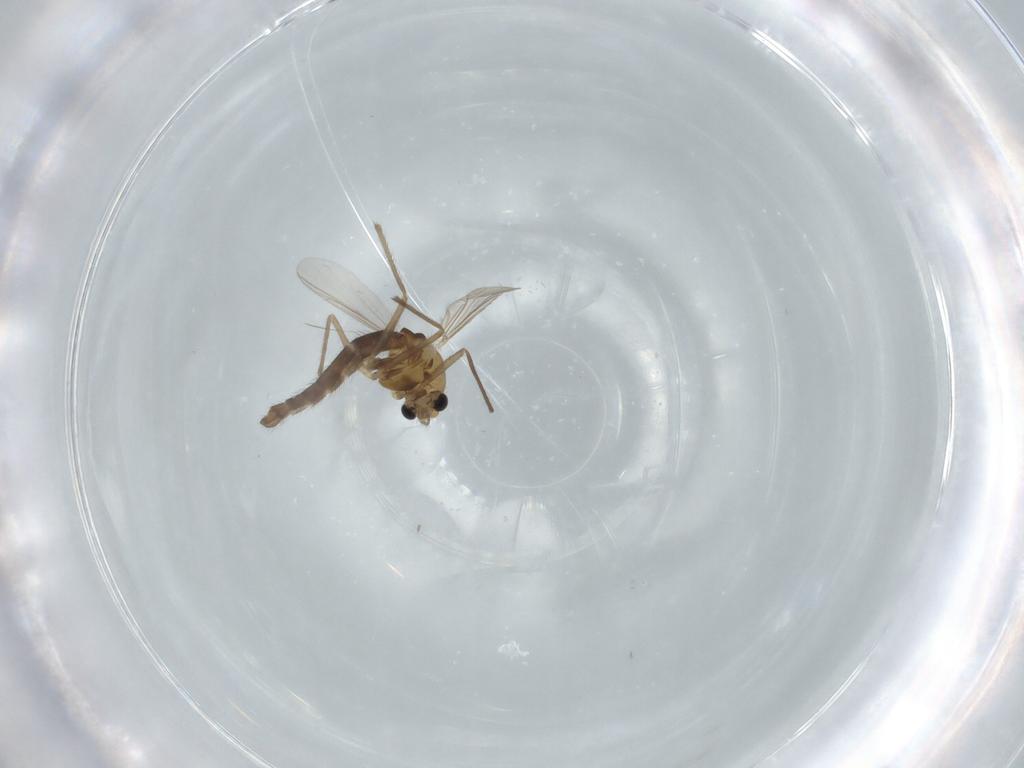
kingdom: Animalia
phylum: Arthropoda
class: Insecta
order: Diptera
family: Chironomidae
